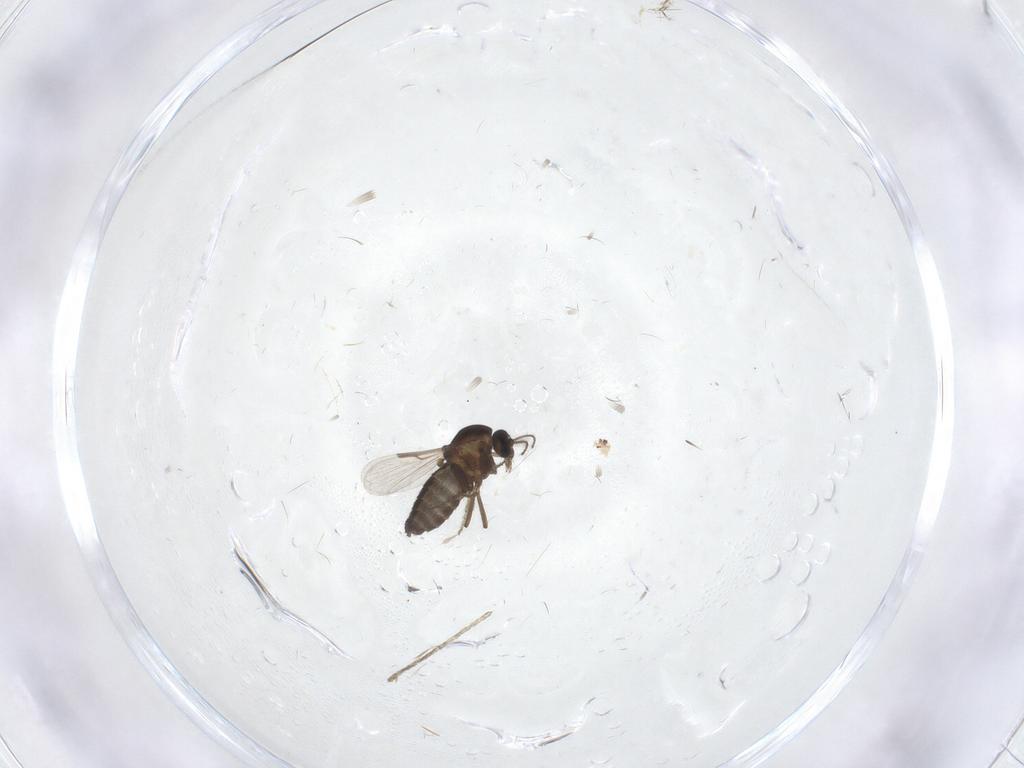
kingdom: Animalia
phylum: Arthropoda
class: Insecta
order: Diptera
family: Ceratopogonidae
